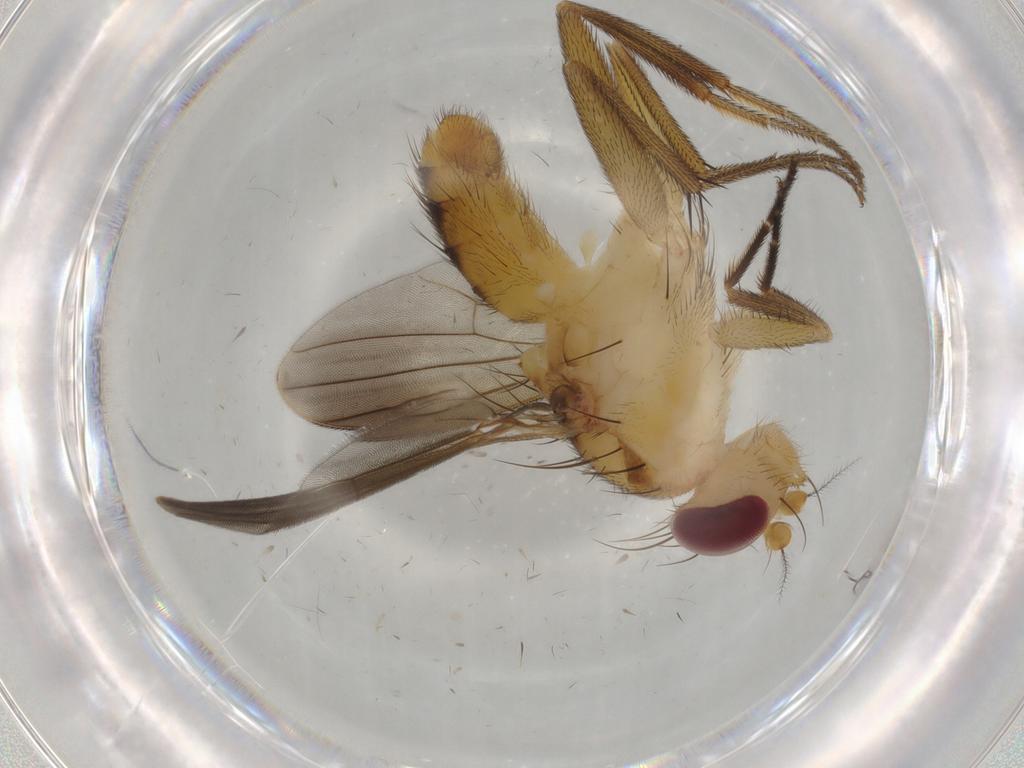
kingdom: Animalia
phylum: Arthropoda
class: Insecta
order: Diptera
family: Clusiidae
